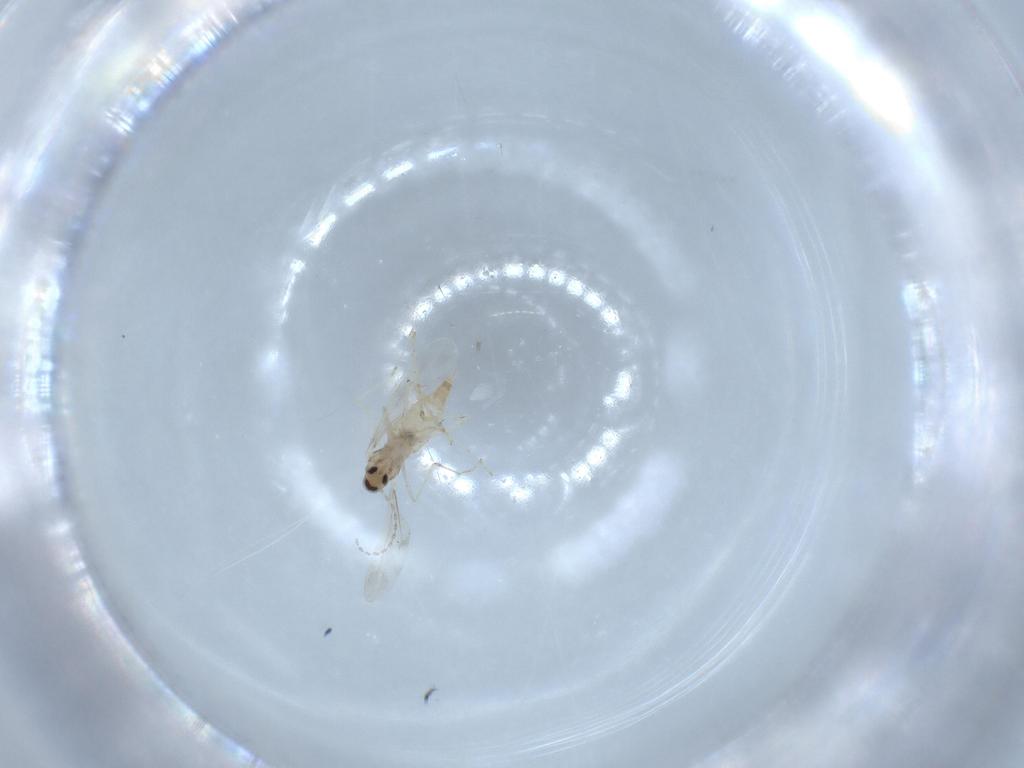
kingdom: Animalia
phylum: Arthropoda
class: Insecta
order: Diptera
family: Chironomidae
